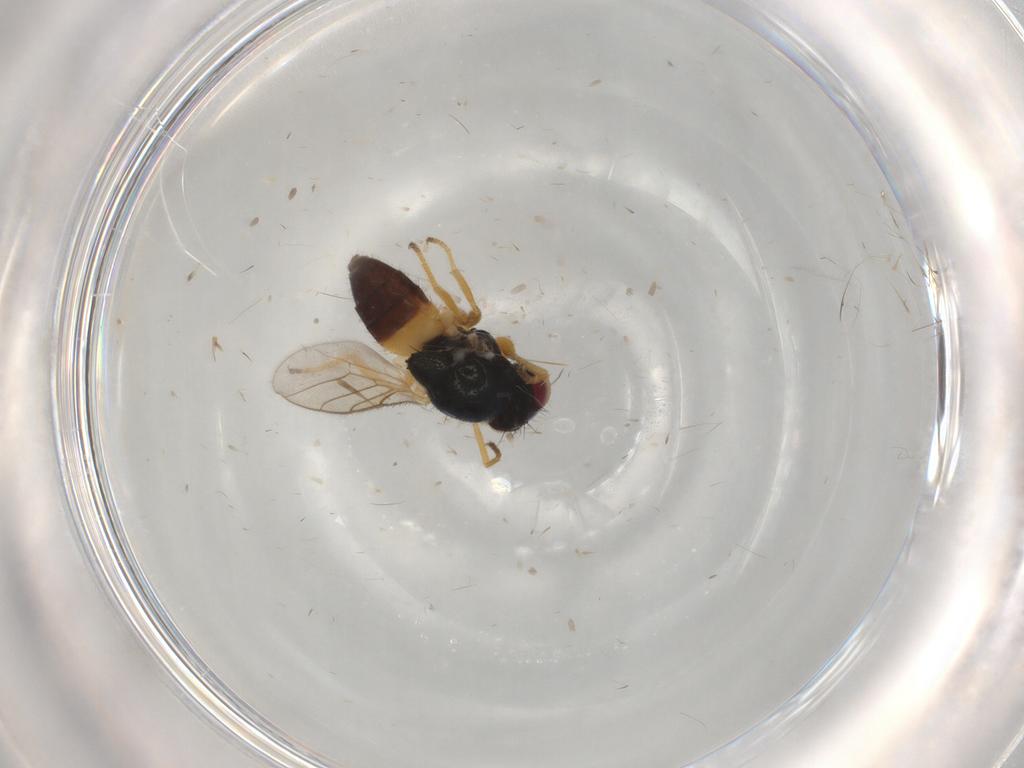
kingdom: Animalia
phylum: Arthropoda
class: Insecta
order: Diptera
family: Chloropidae
